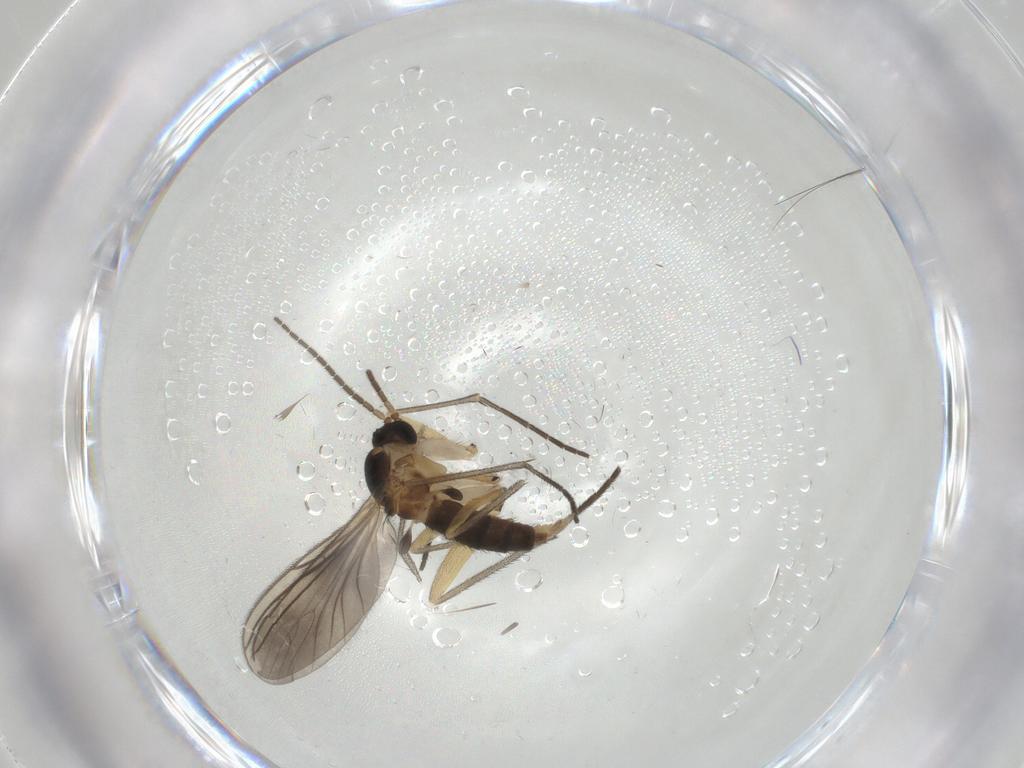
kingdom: Animalia
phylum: Arthropoda
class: Insecta
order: Diptera
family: Sciaridae
